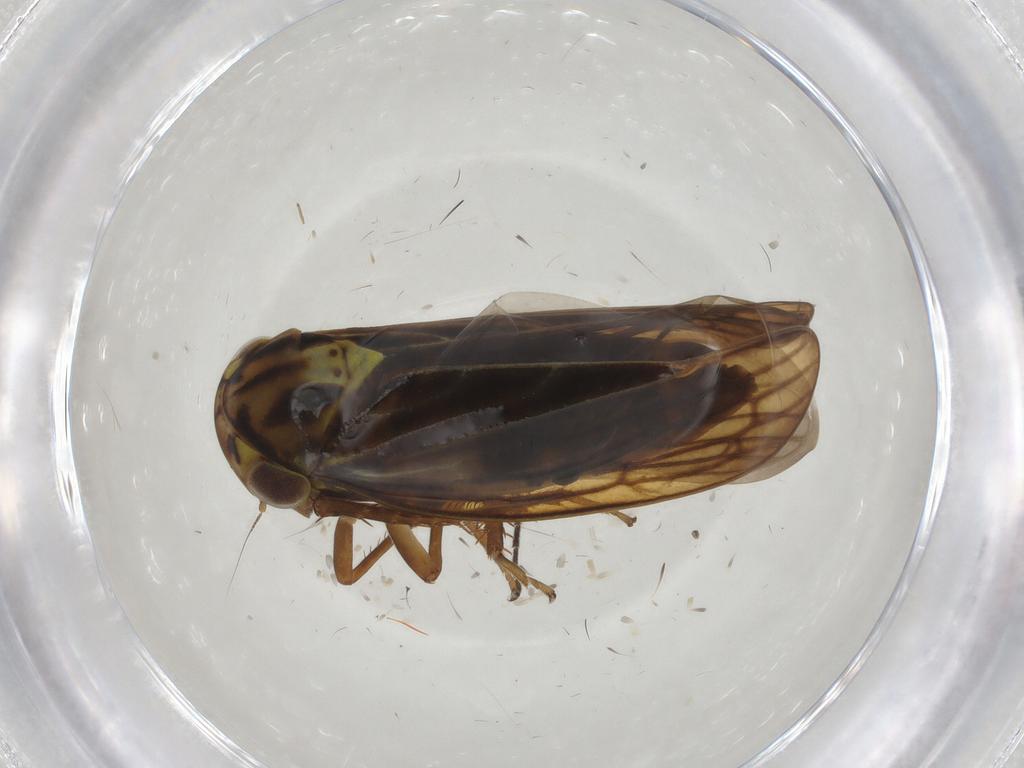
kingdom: Animalia
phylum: Arthropoda
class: Insecta
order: Hemiptera
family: Cicadellidae
